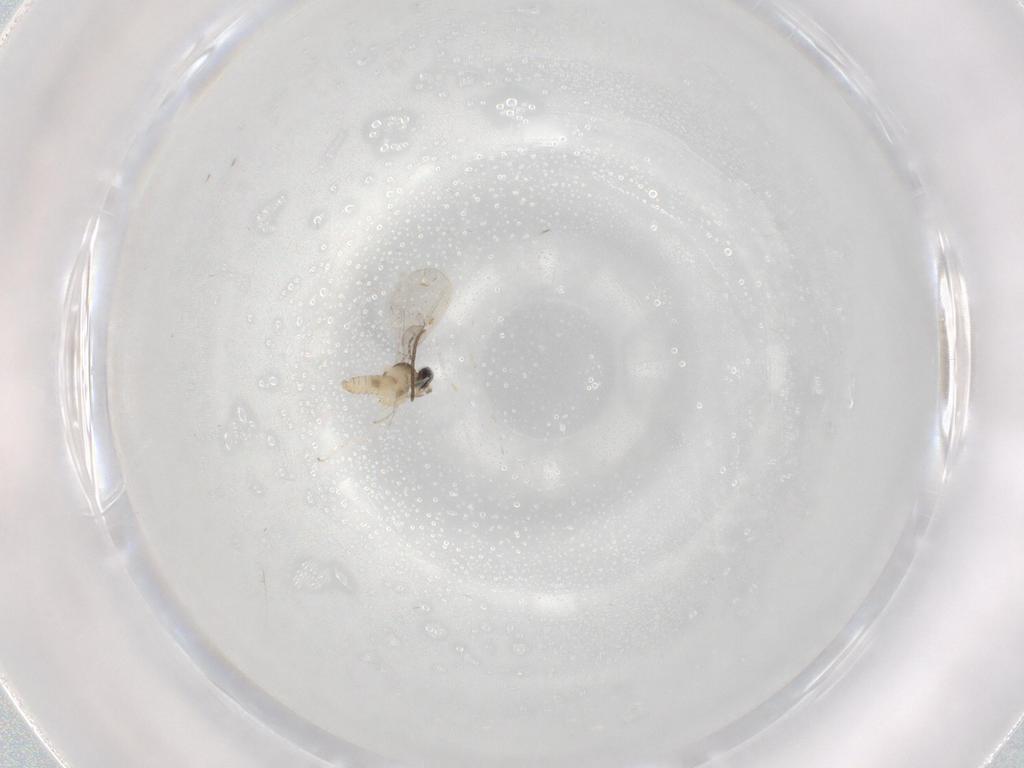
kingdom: Animalia
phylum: Arthropoda
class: Insecta
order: Diptera
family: Cecidomyiidae
